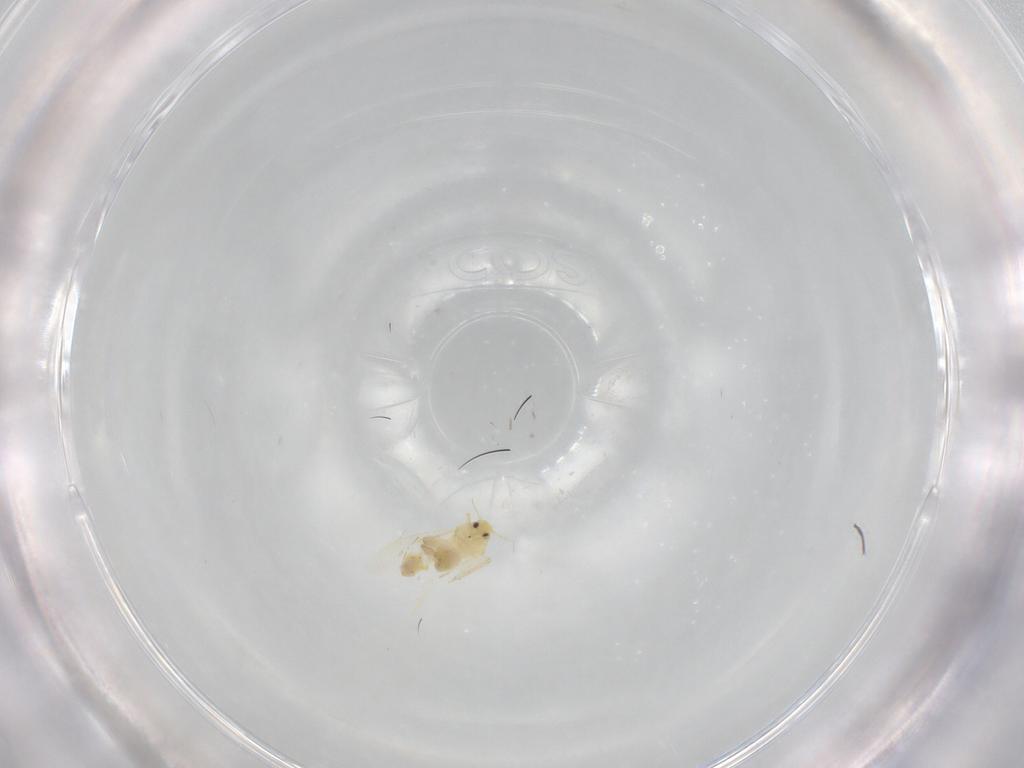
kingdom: Animalia
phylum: Arthropoda
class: Insecta
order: Hemiptera
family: Aleyrodidae
